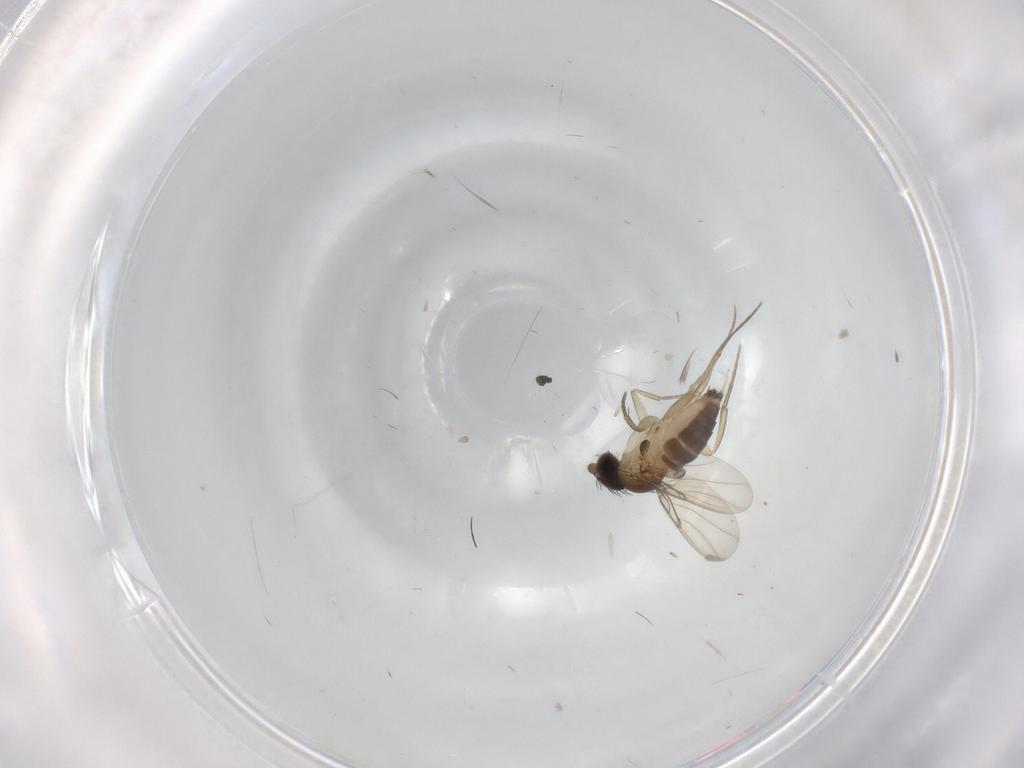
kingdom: Animalia
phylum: Arthropoda
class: Insecta
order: Diptera
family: Phoridae
